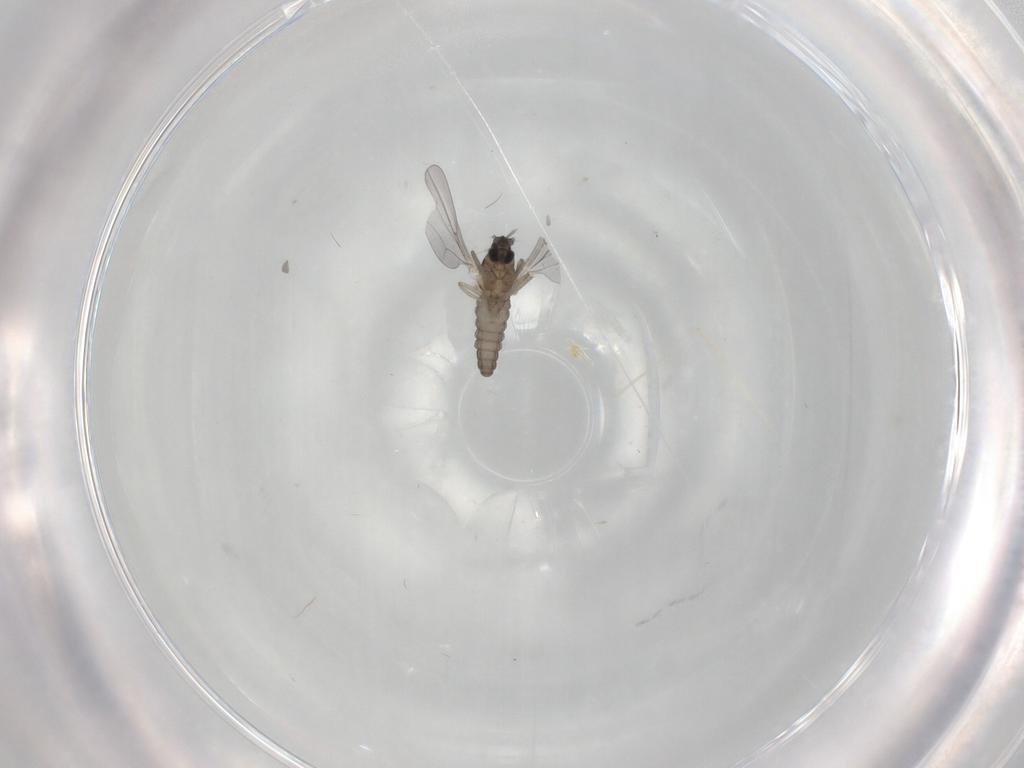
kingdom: Animalia
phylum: Arthropoda
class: Insecta
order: Diptera
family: Cecidomyiidae
